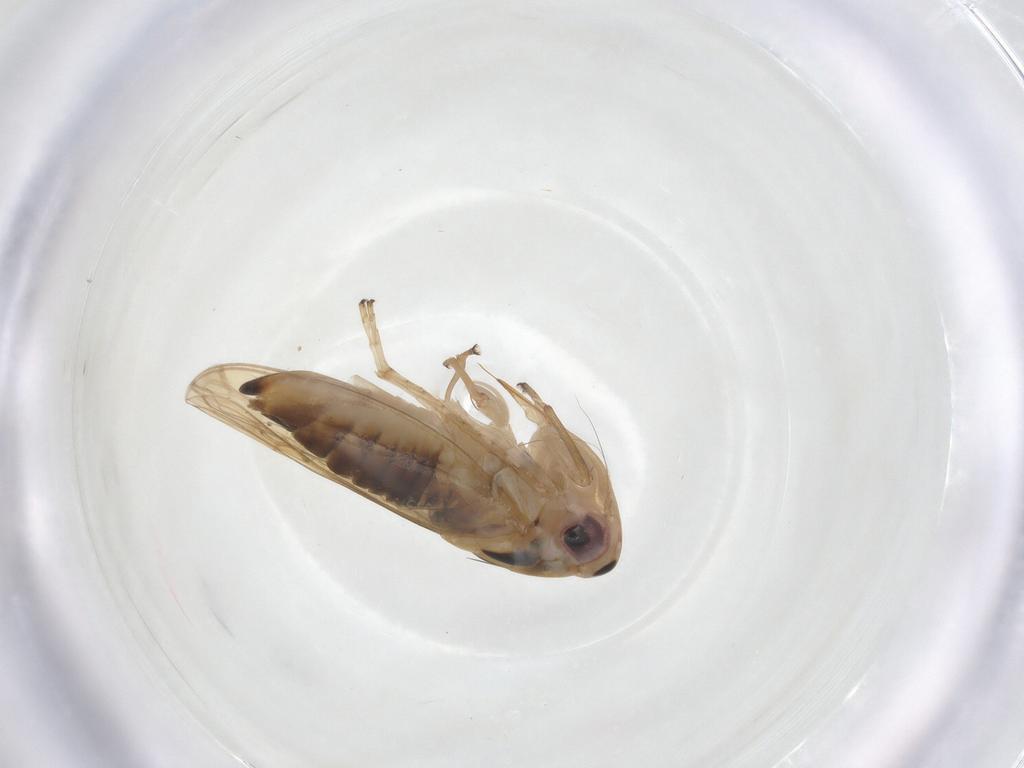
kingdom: Animalia
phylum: Arthropoda
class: Insecta
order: Hemiptera
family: Cicadellidae
